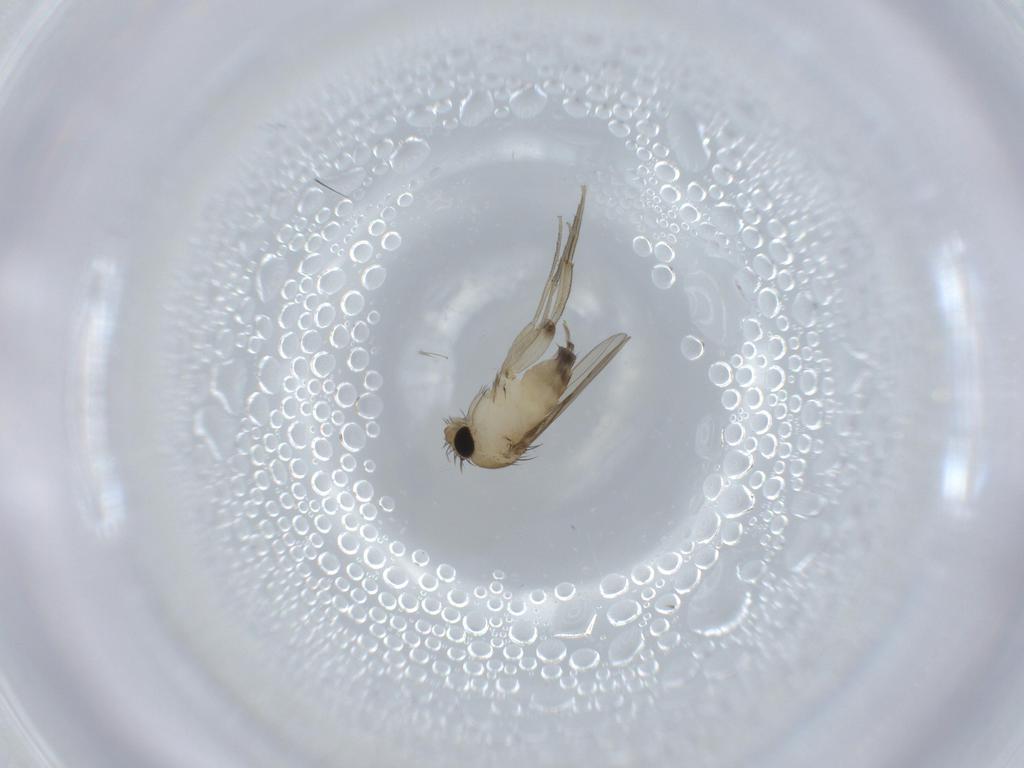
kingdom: Animalia
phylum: Arthropoda
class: Insecta
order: Diptera
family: Phoridae
